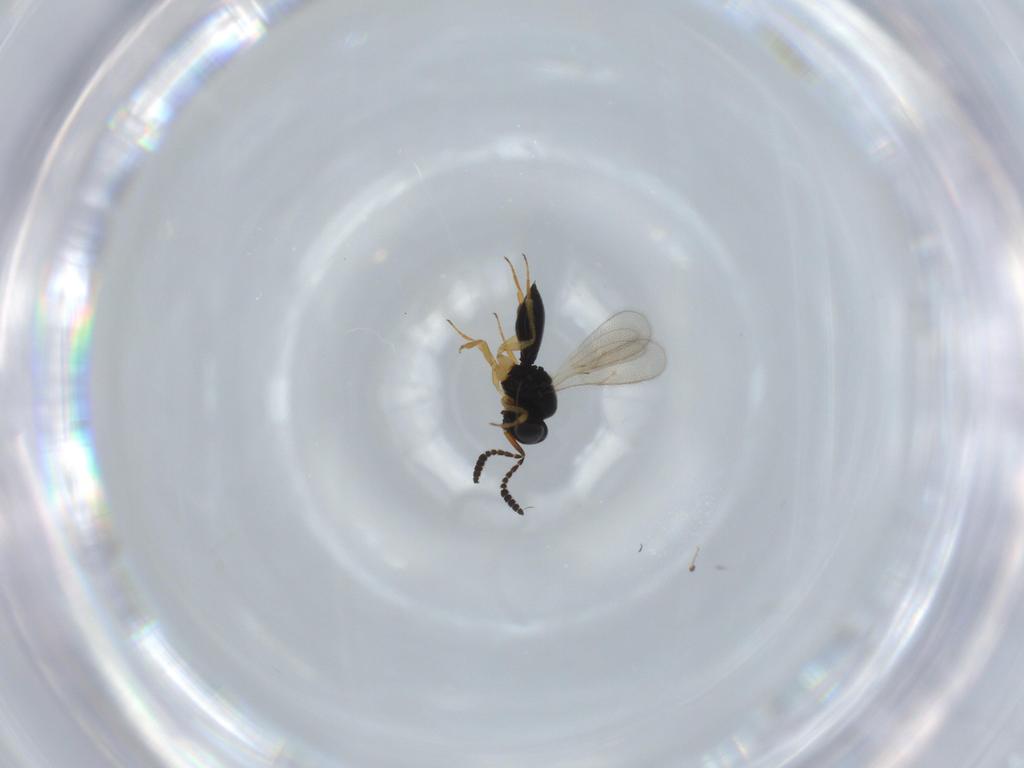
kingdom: Animalia
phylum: Arthropoda
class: Insecta
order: Hymenoptera
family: Scelionidae
